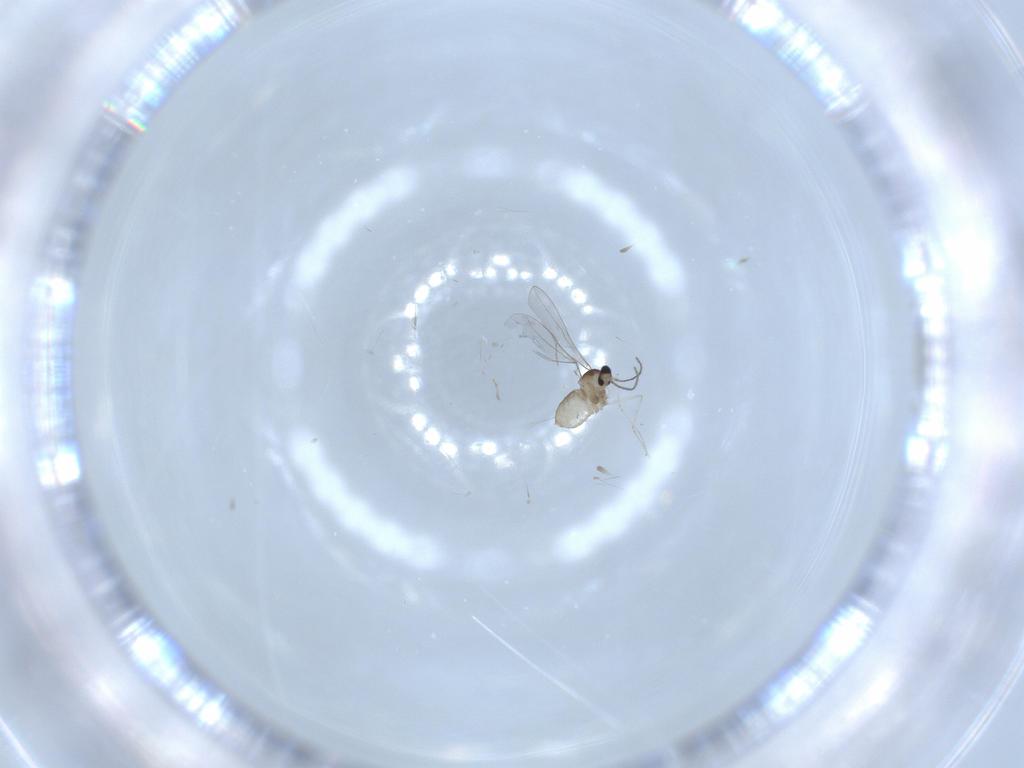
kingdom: Animalia
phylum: Arthropoda
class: Insecta
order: Diptera
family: Cecidomyiidae
